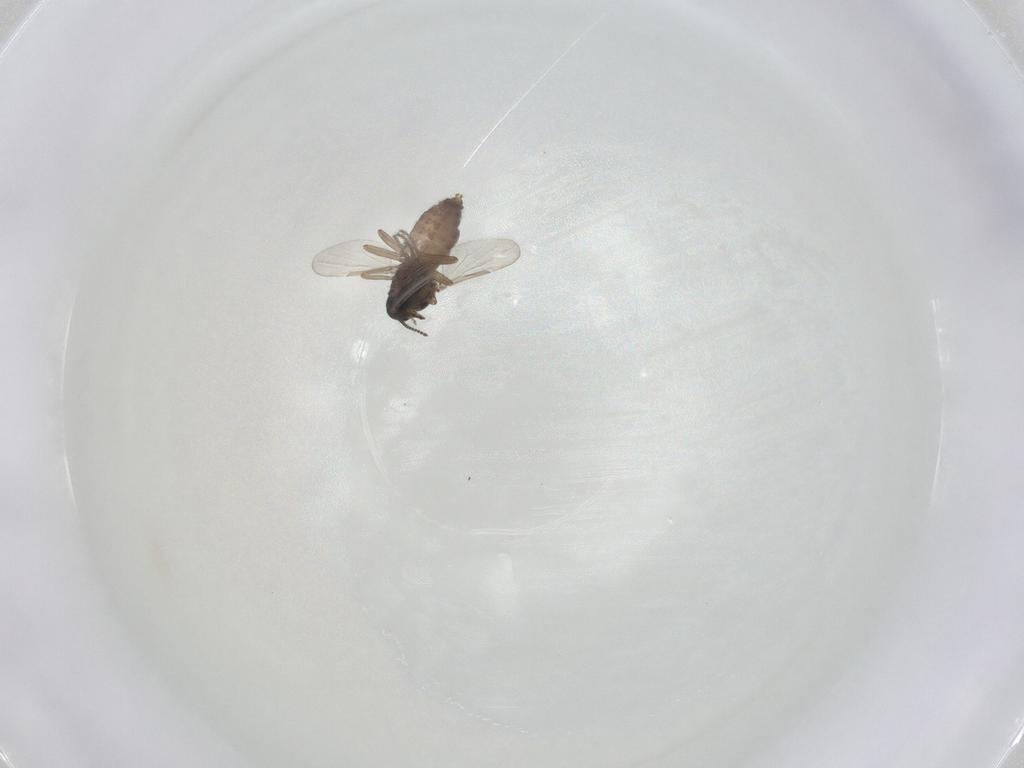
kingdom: Animalia
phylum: Arthropoda
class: Insecta
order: Diptera
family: Ceratopogonidae
